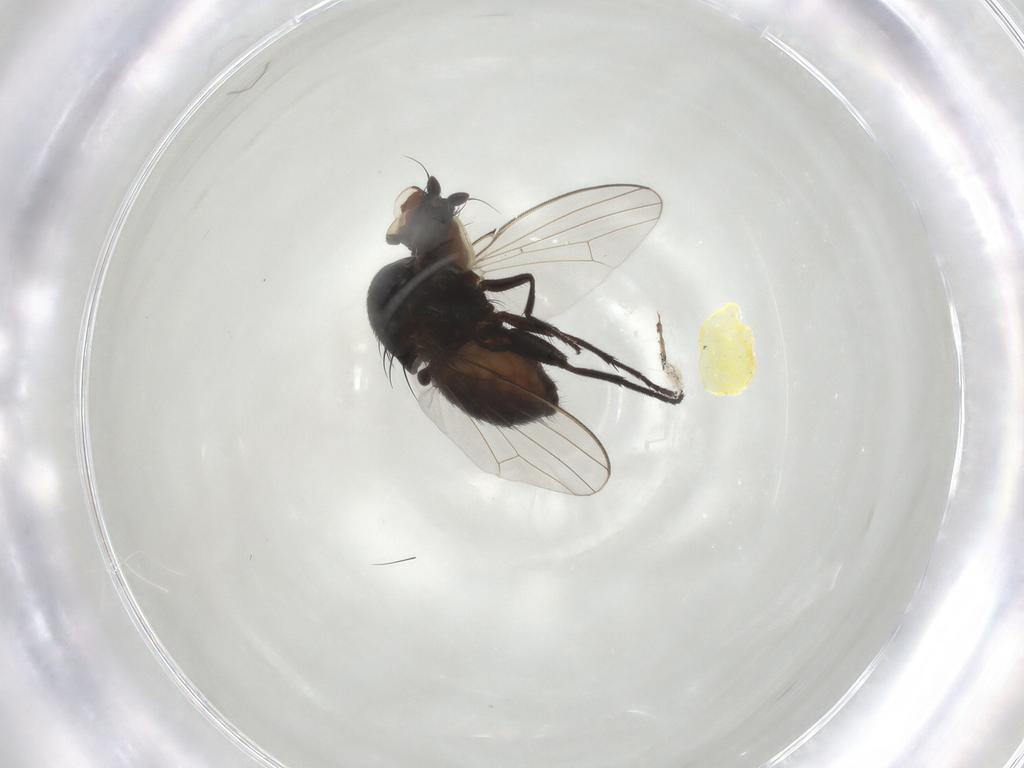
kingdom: Animalia
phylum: Arthropoda
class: Insecta
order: Diptera
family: Milichiidae
